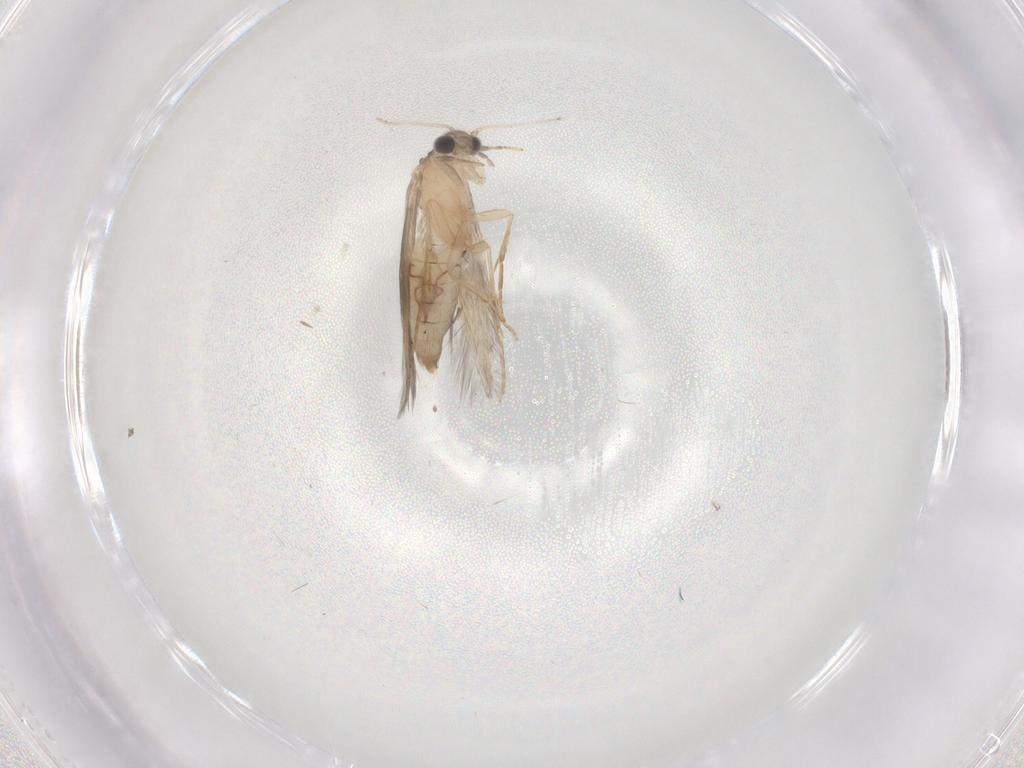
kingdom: Animalia
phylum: Arthropoda
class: Insecta
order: Trichoptera
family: Hydroptilidae
